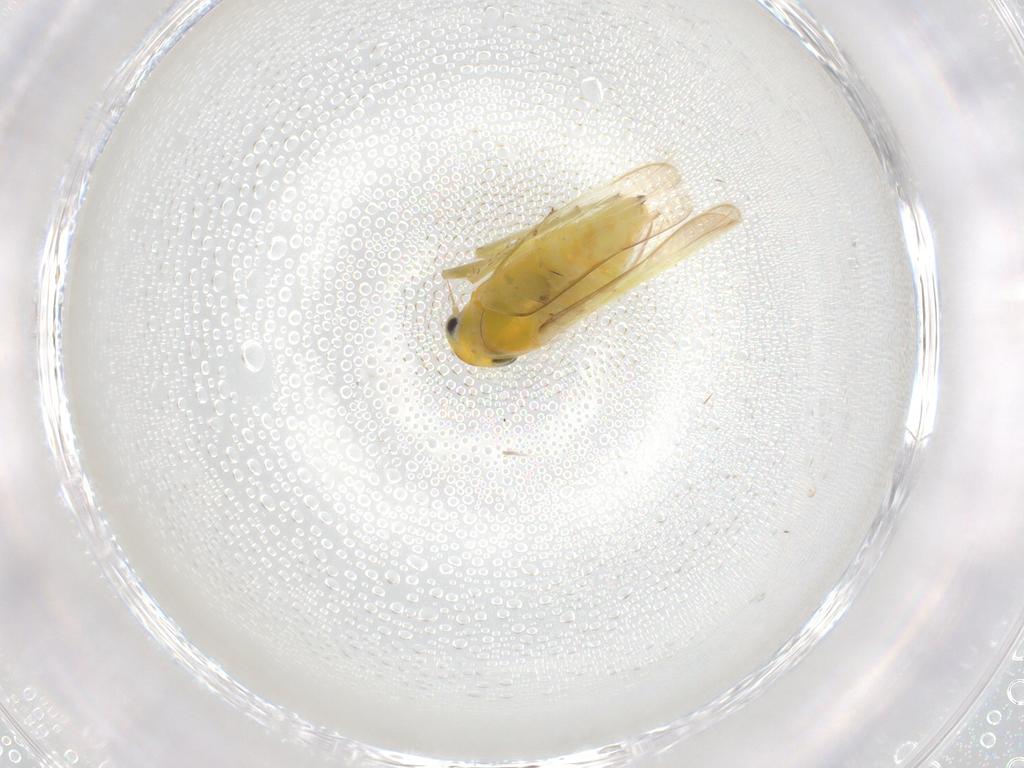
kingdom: Animalia
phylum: Arthropoda
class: Insecta
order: Hemiptera
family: Cicadellidae
